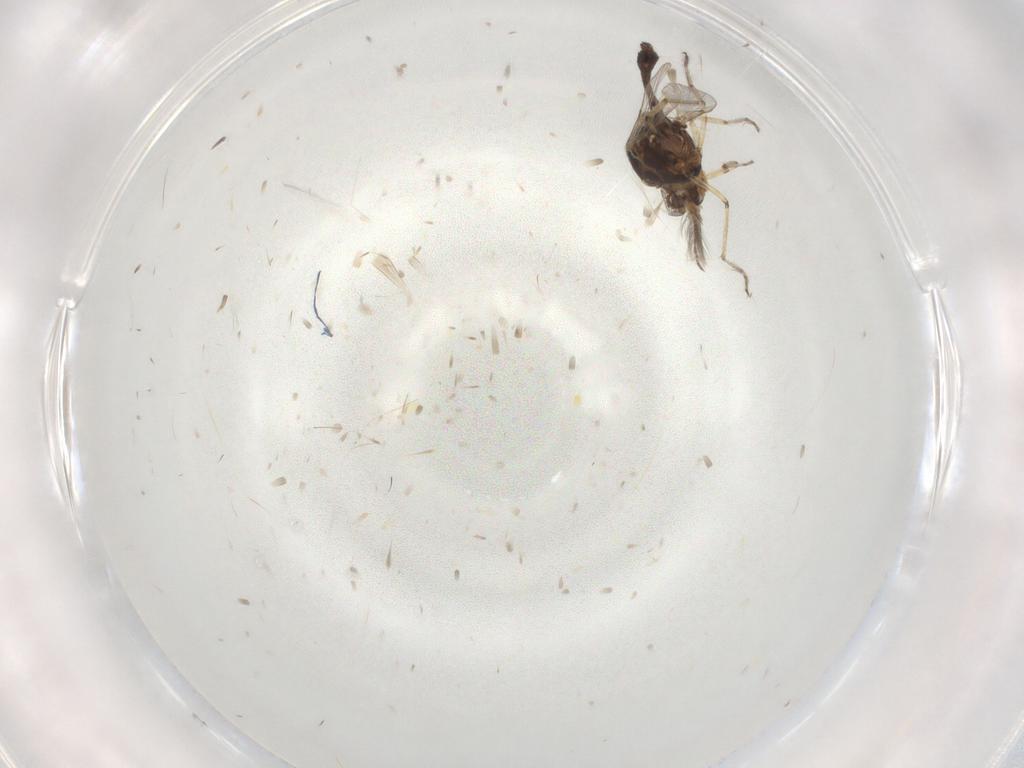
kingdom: Animalia
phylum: Arthropoda
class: Insecta
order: Diptera
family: Ceratopogonidae
